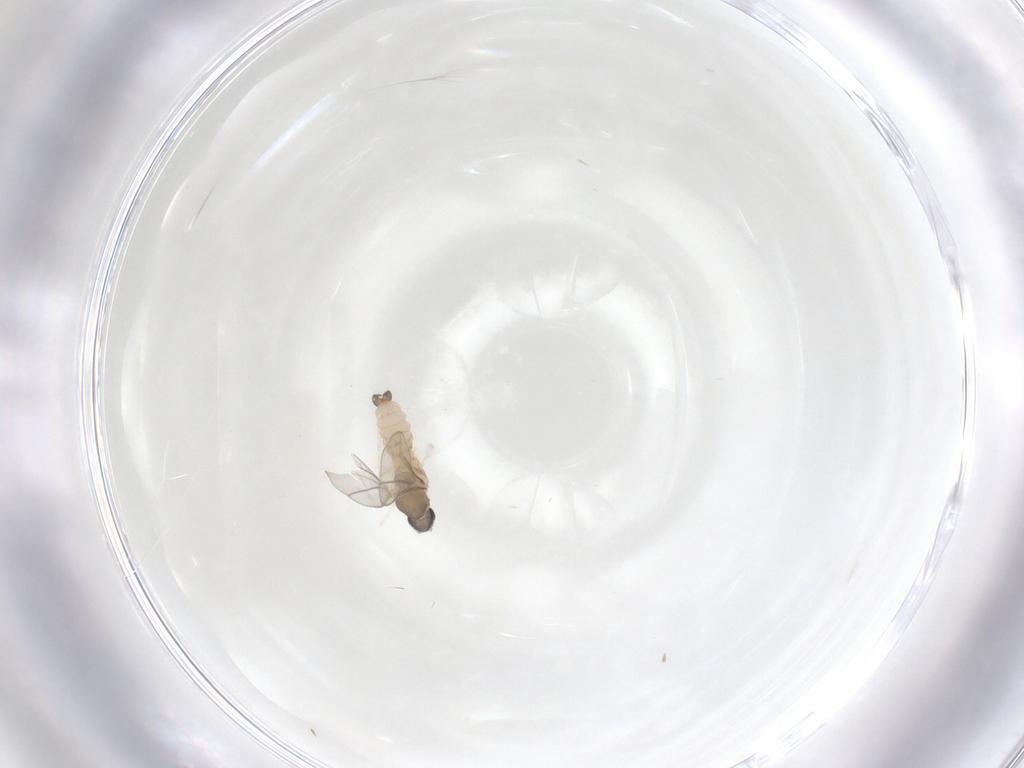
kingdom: Animalia
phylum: Arthropoda
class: Insecta
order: Diptera
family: Cecidomyiidae
